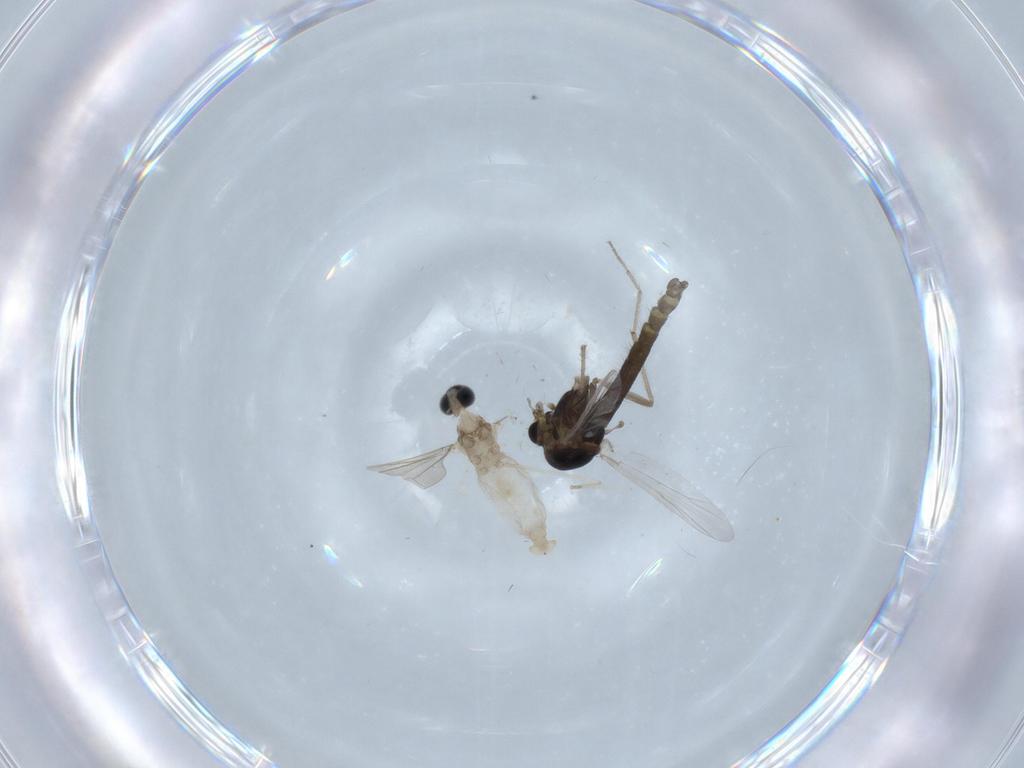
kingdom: Animalia
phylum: Arthropoda
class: Insecta
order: Diptera
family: Chironomidae
